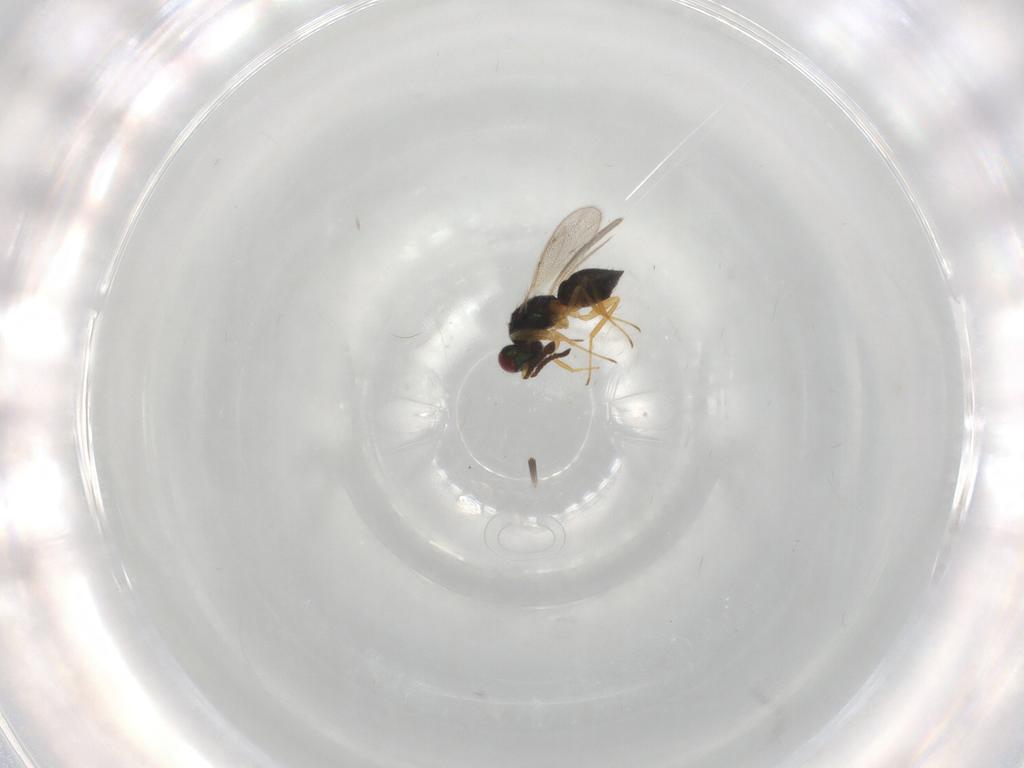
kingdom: Animalia
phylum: Arthropoda
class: Insecta
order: Hymenoptera
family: Tetracampidae
